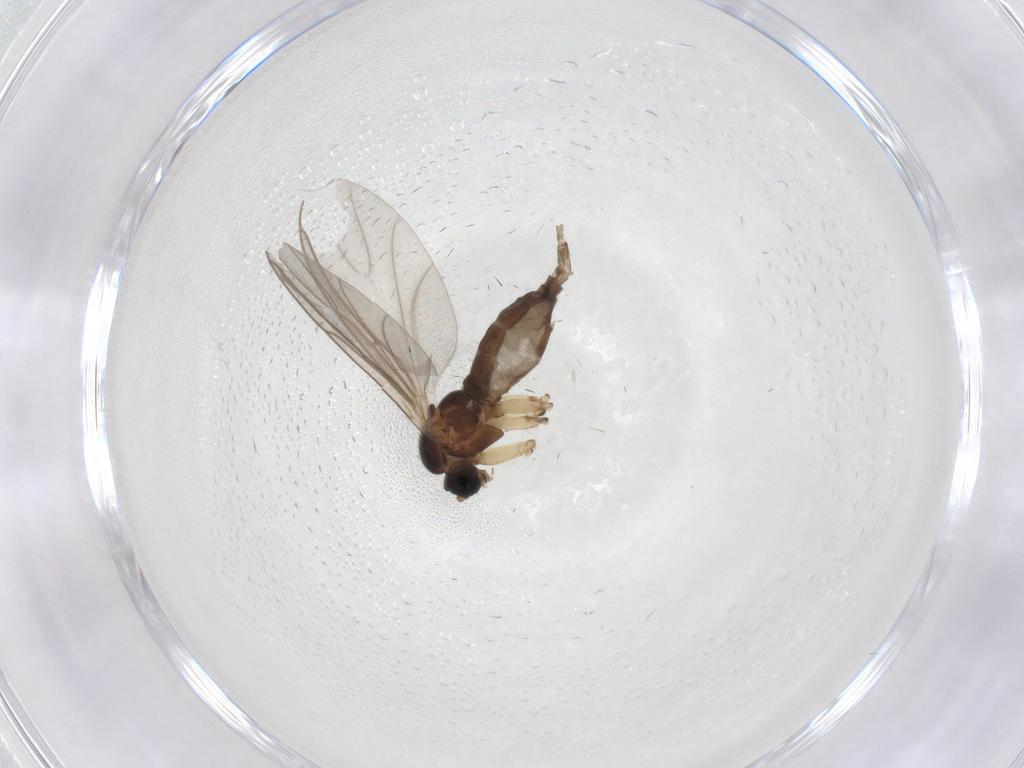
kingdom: Animalia
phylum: Arthropoda
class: Insecta
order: Diptera
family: Sciaridae
